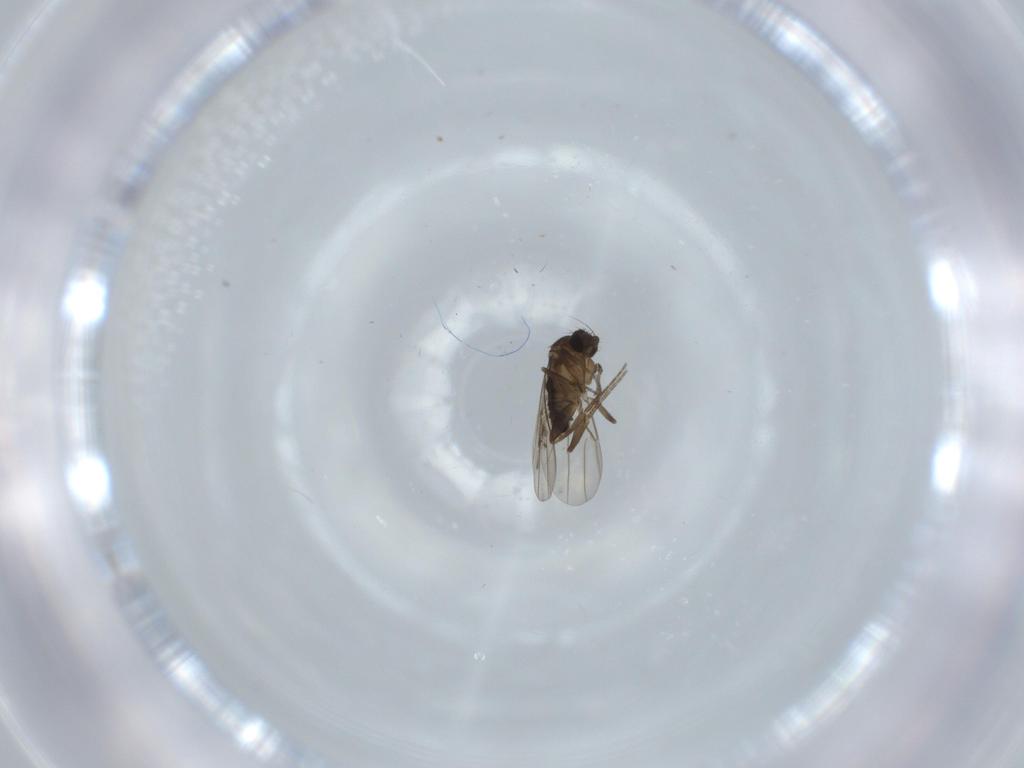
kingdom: Animalia
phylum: Arthropoda
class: Insecta
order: Diptera
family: Phoridae
